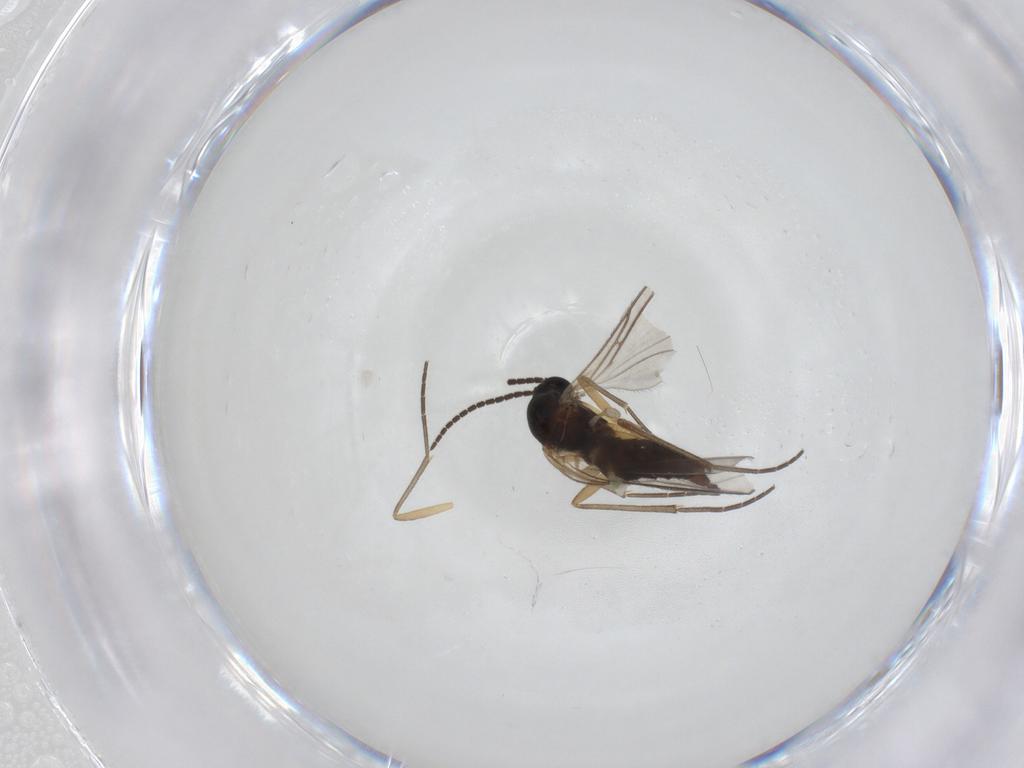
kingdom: Animalia
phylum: Arthropoda
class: Insecta
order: Diptera
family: Sciaridae
